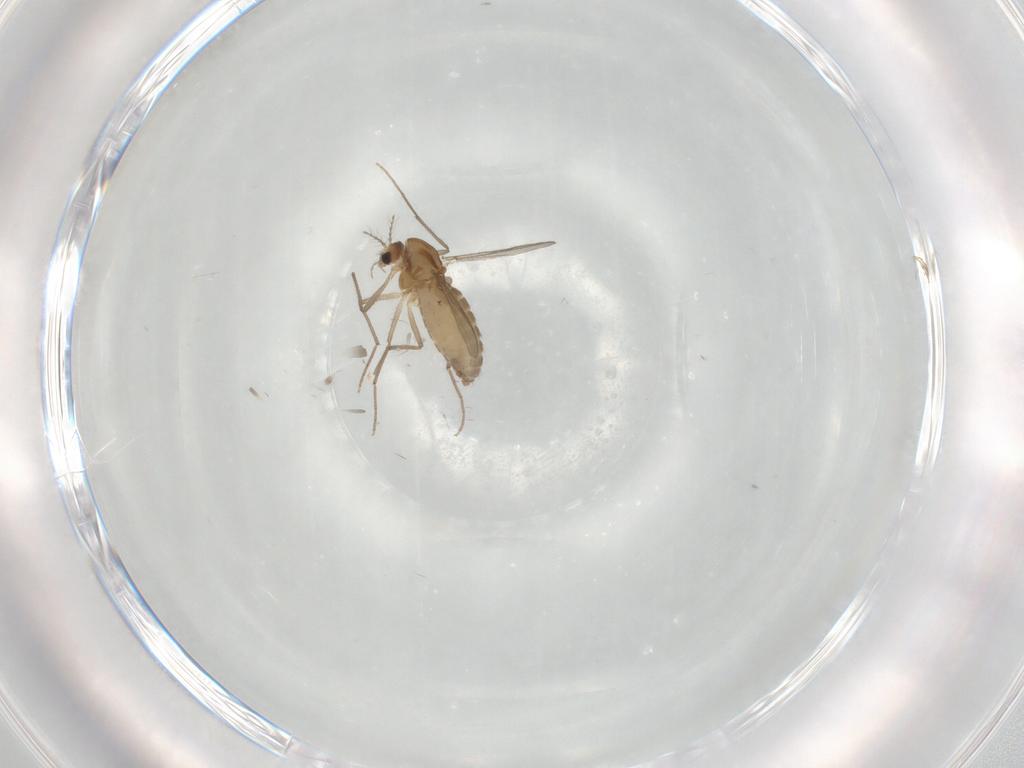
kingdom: Animalia
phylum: Arthropoda
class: Insecta
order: Diptera
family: Chironomidae
